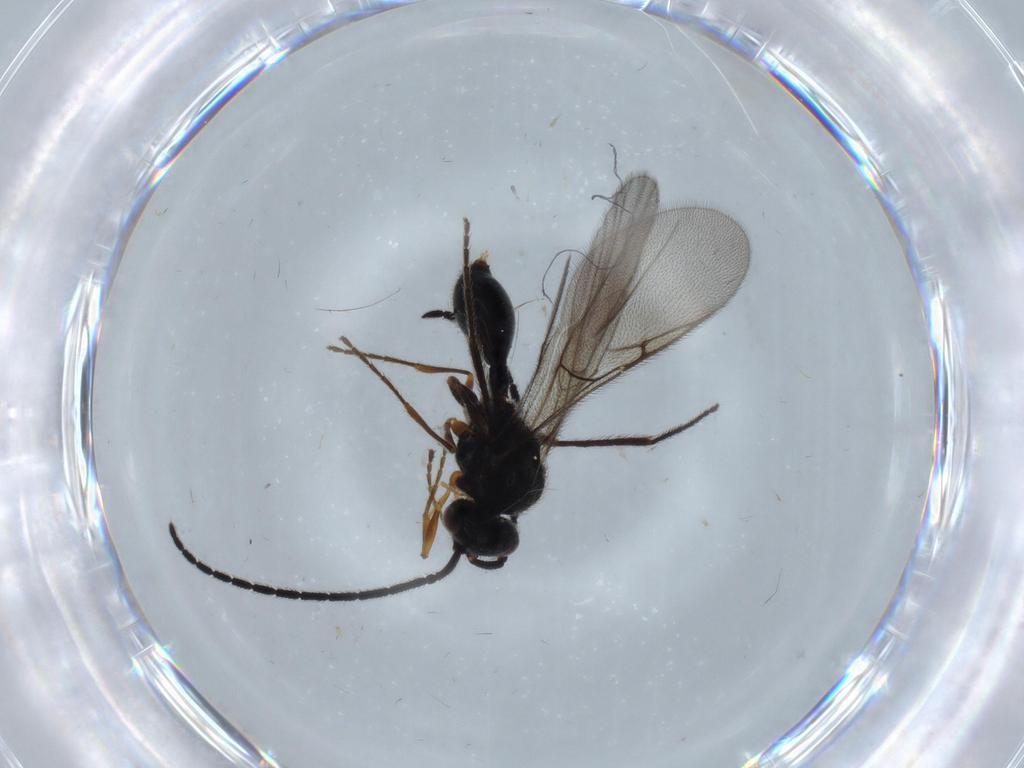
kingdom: Animalia
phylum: Arthropoda
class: Insecta
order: Hymenoptera
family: Diapriidae
